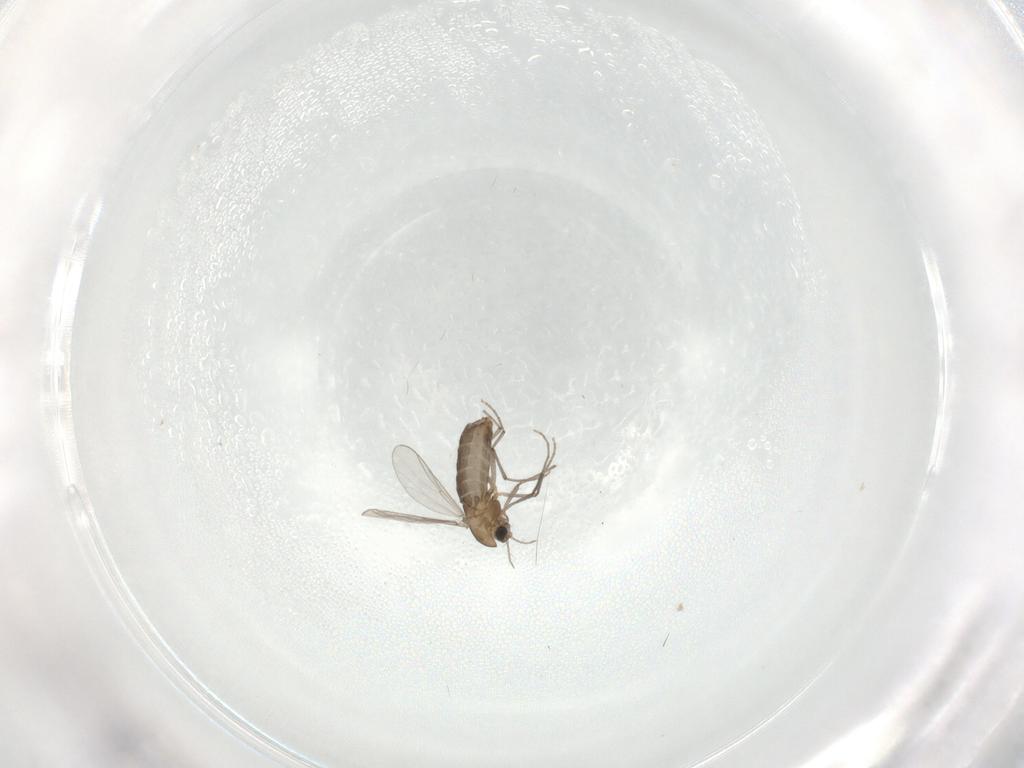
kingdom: Animalia
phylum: Arthropoda
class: Insecta
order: Diptera
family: Chironomidae
